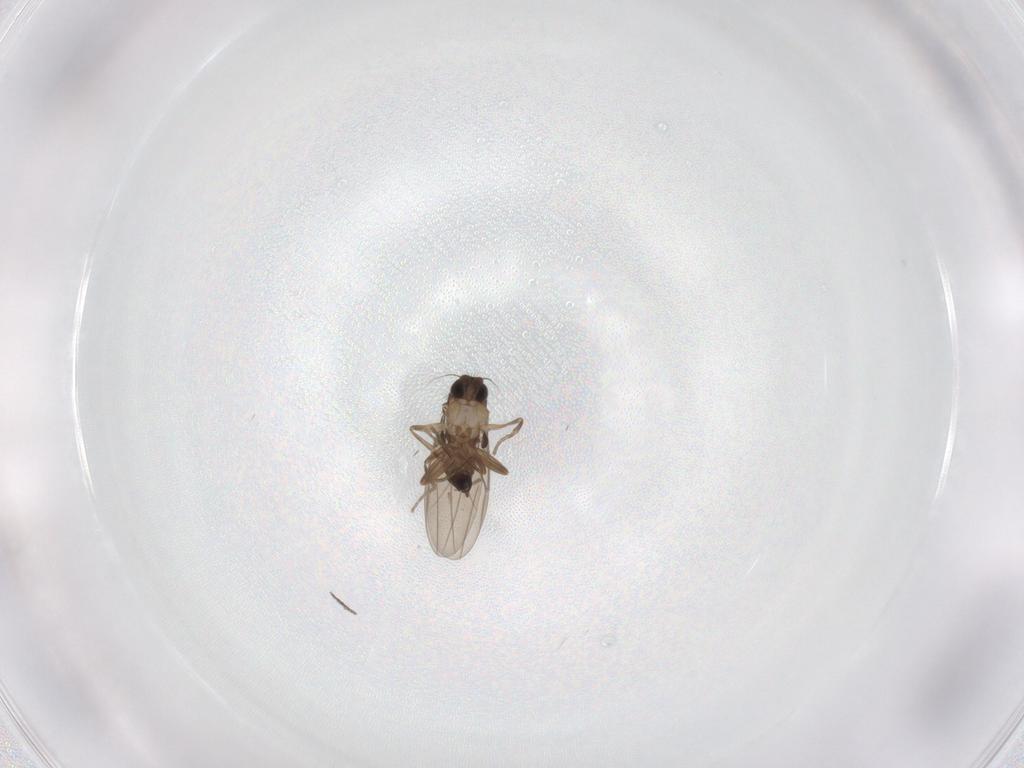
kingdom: Animalia
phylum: Arthropoda
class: Insecta
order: Diptera
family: Phoridae
